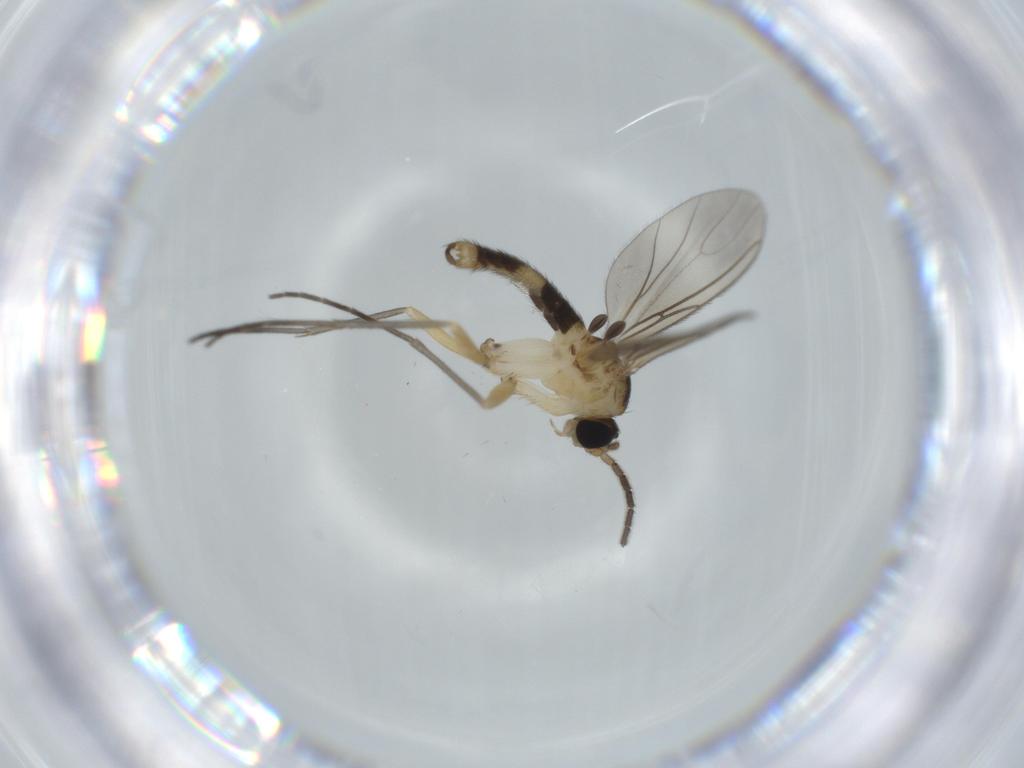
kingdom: Animalia
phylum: Arthropoda
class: Insecta
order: Diptera
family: Sciaridae
